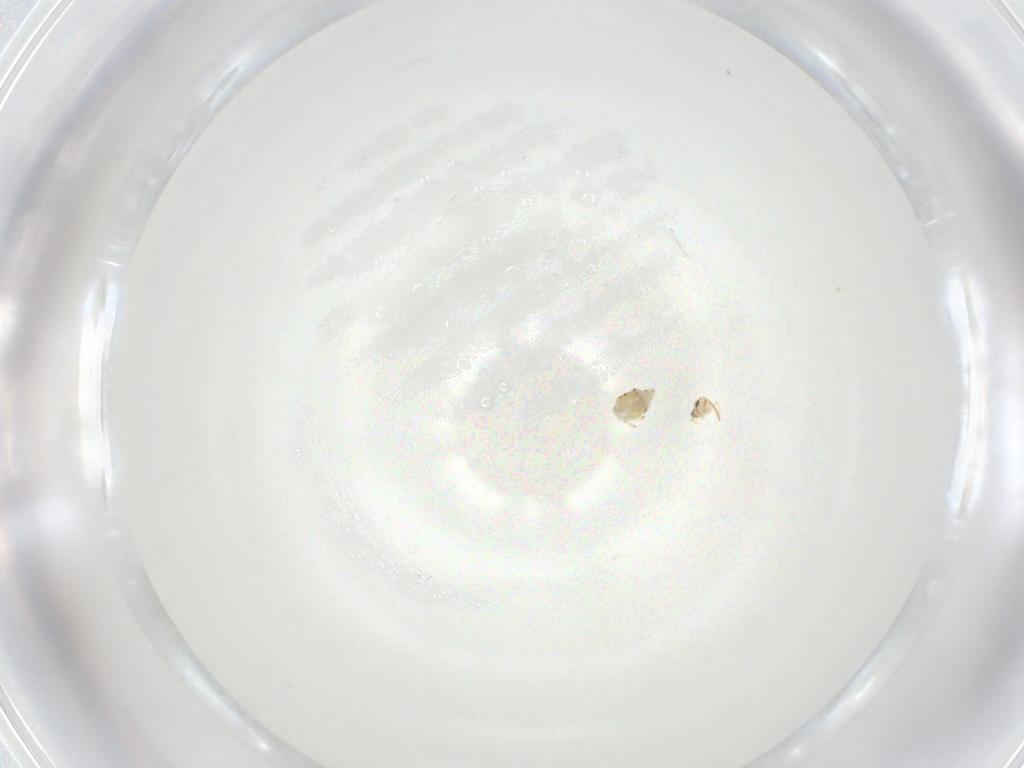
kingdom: Animalia
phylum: Arthropoda
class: Collembola
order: Symphypleona
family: Bourletiellidae
